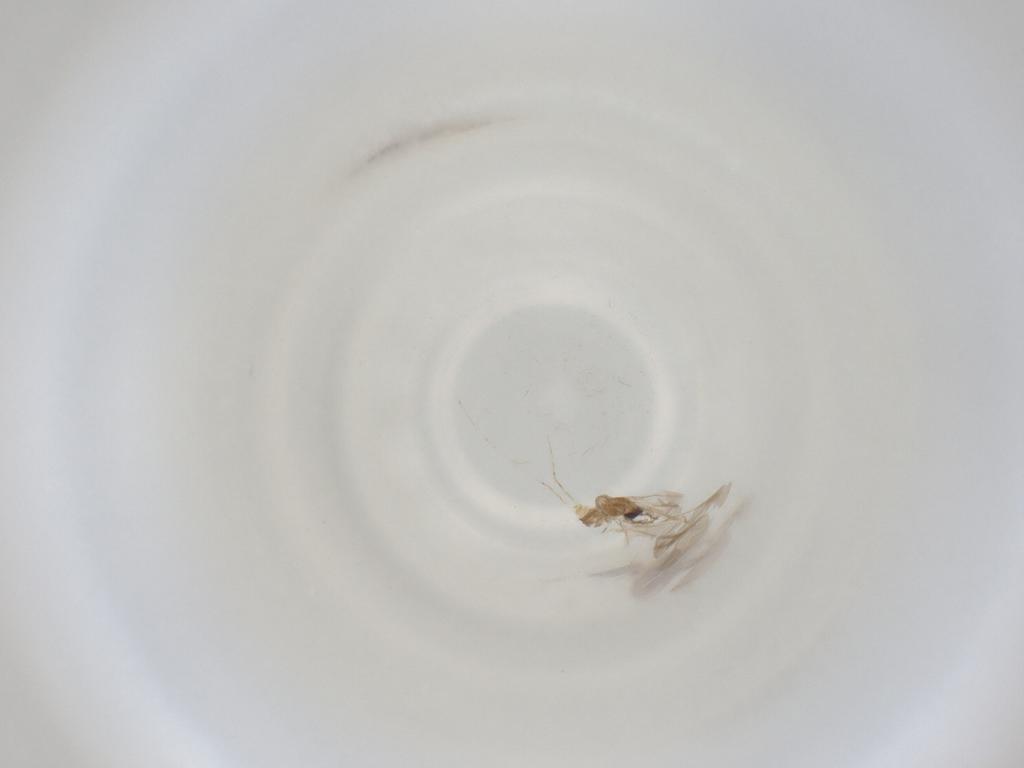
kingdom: Animalia
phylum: Arthropoda
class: Insecta
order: Diptera
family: Cecidomyiidae
